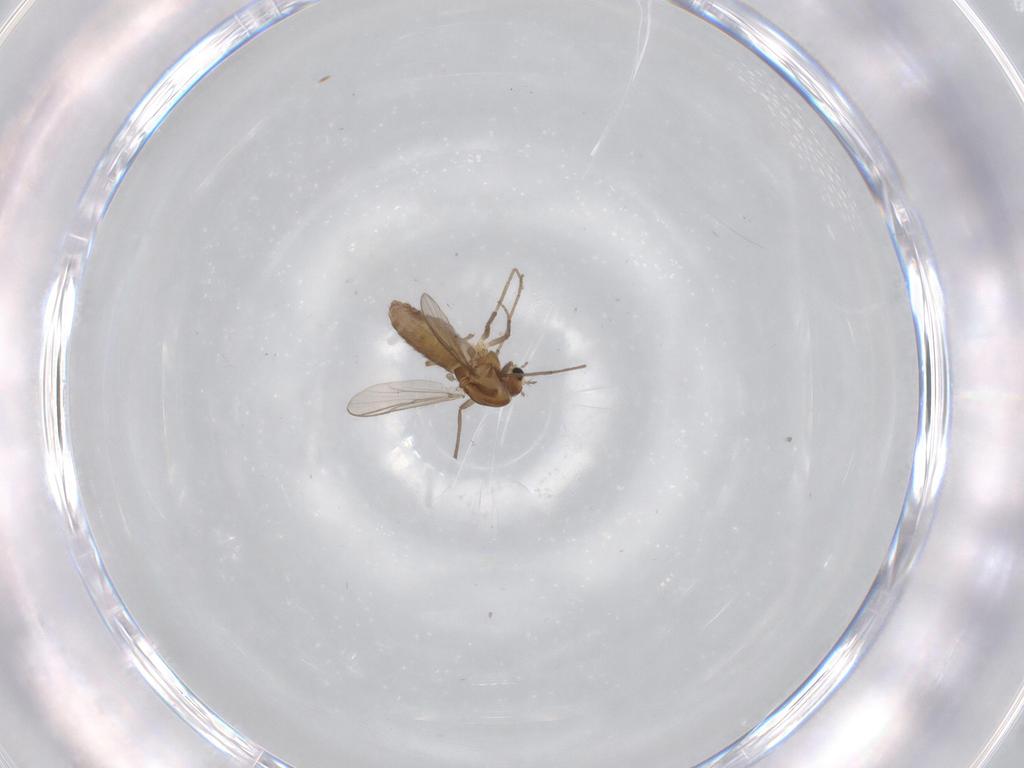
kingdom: Animalia
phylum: Arthropoda
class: Insecta
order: Diptera
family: Chironomidae
